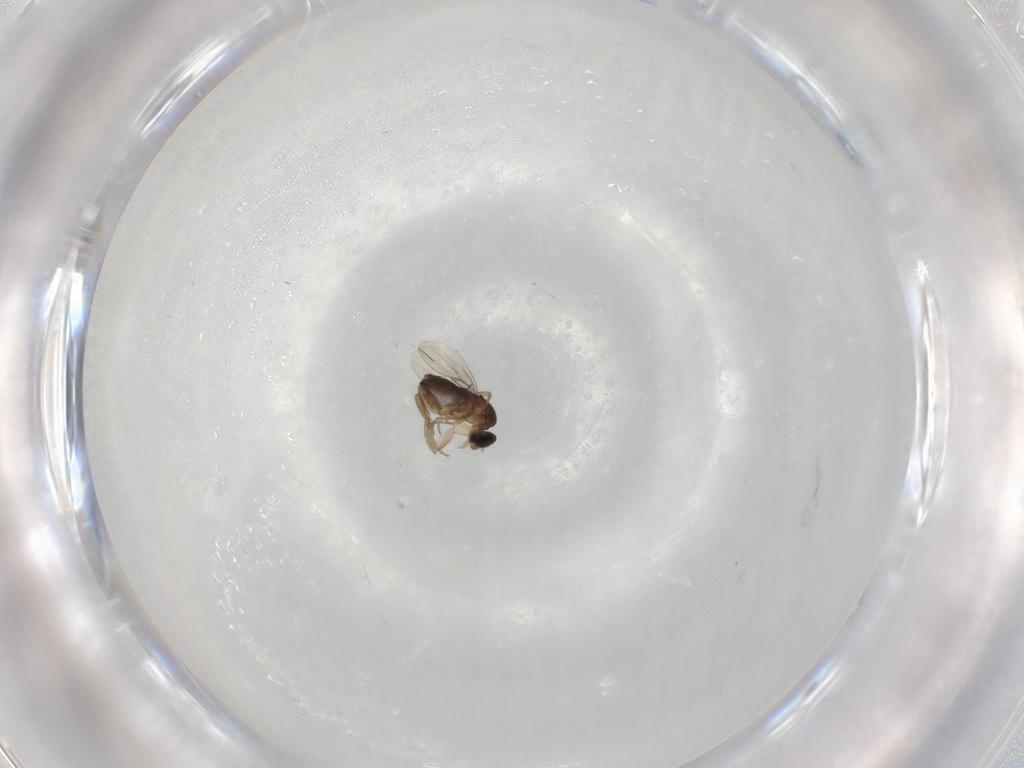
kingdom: Animalia
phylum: Arthropoda
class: Insecta
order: Diptera
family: Phoridae
